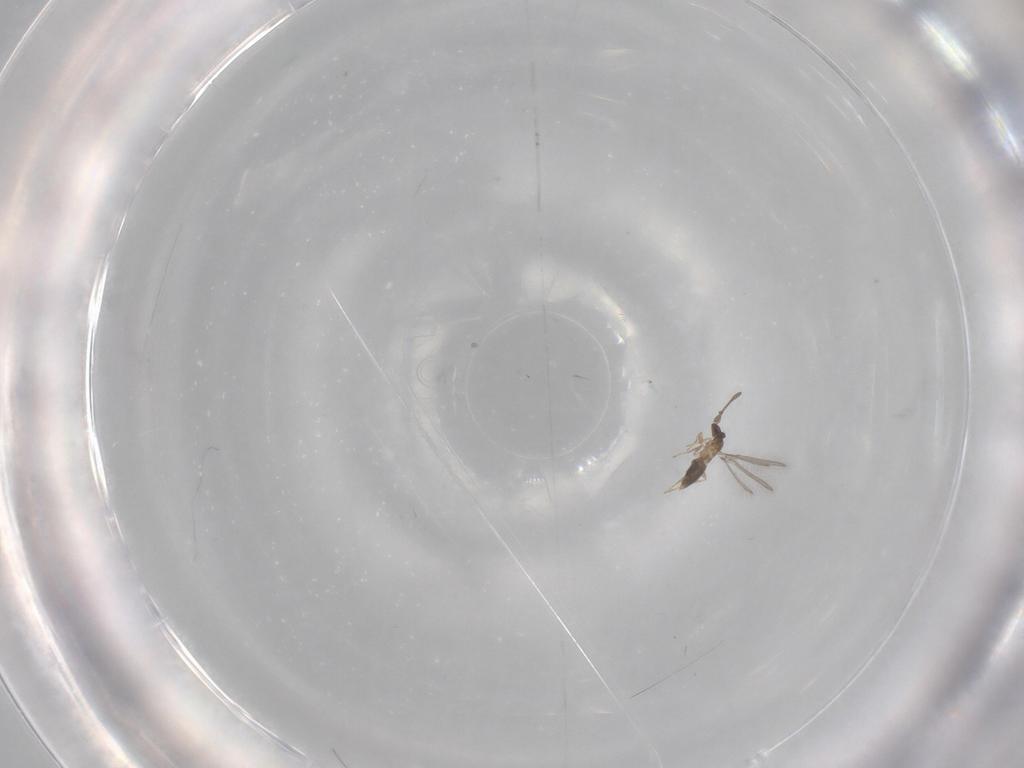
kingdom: Animalia
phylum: Arthropoda
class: Insecta
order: Hymenoptera
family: Mymaridae
